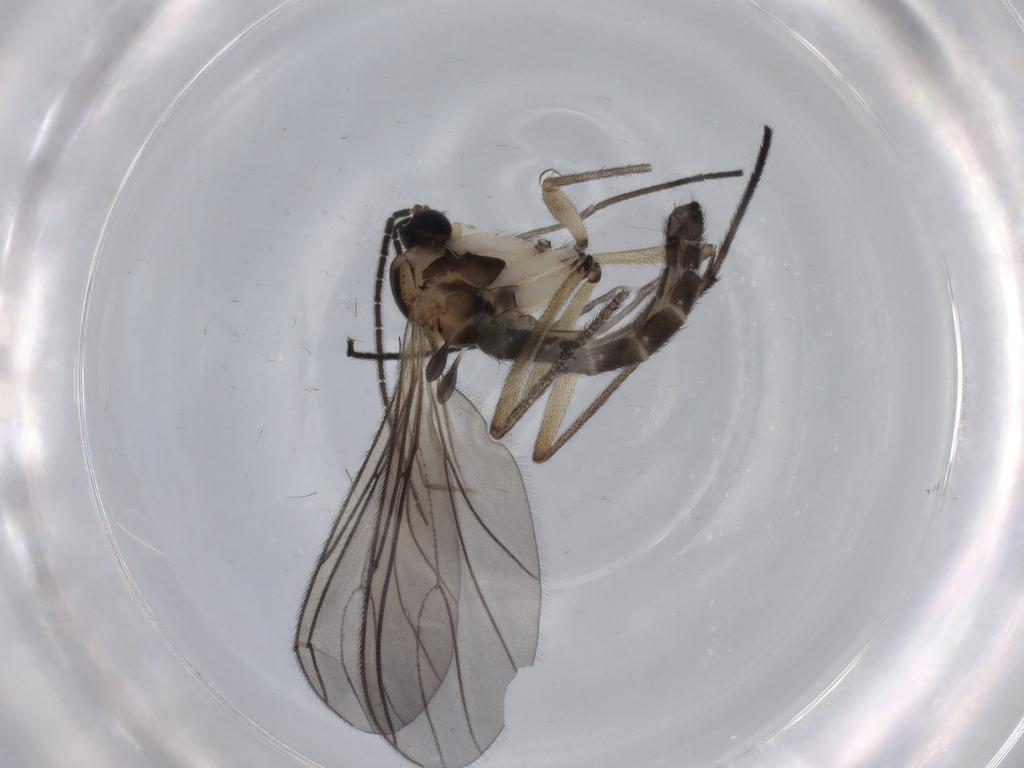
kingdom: Animalia
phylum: Arthropoda
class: Insecta
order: Diptera
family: Sciaridae
